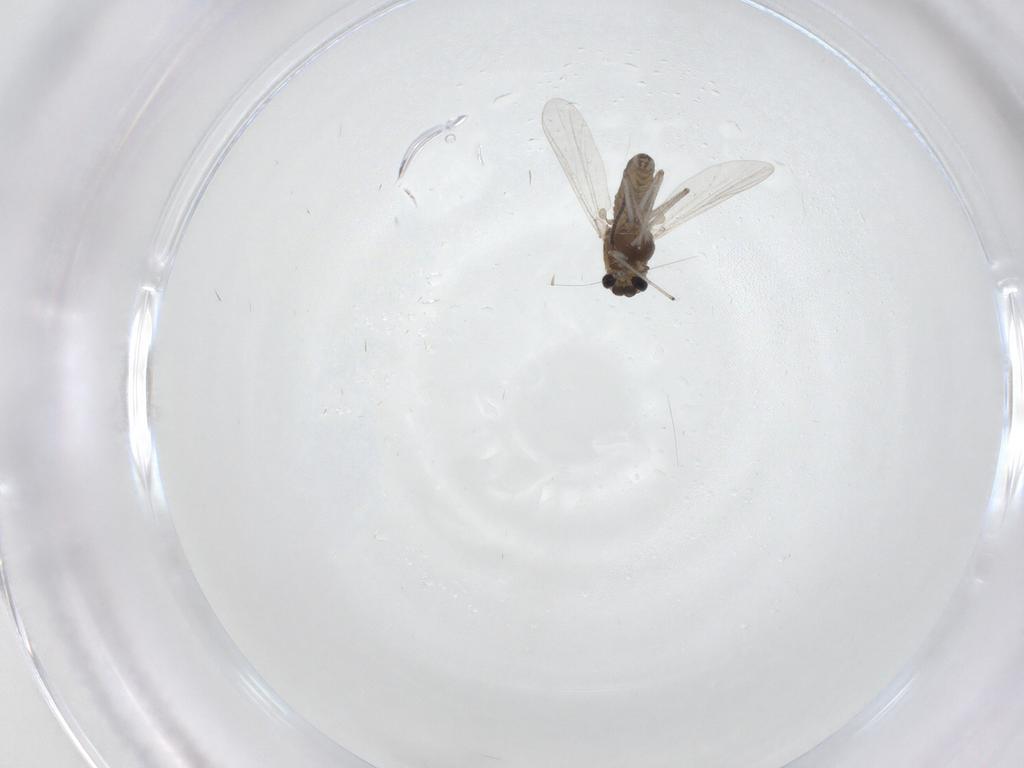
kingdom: Animalia
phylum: Arthropoda
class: Insecta
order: Diptera
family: Chironomidae
